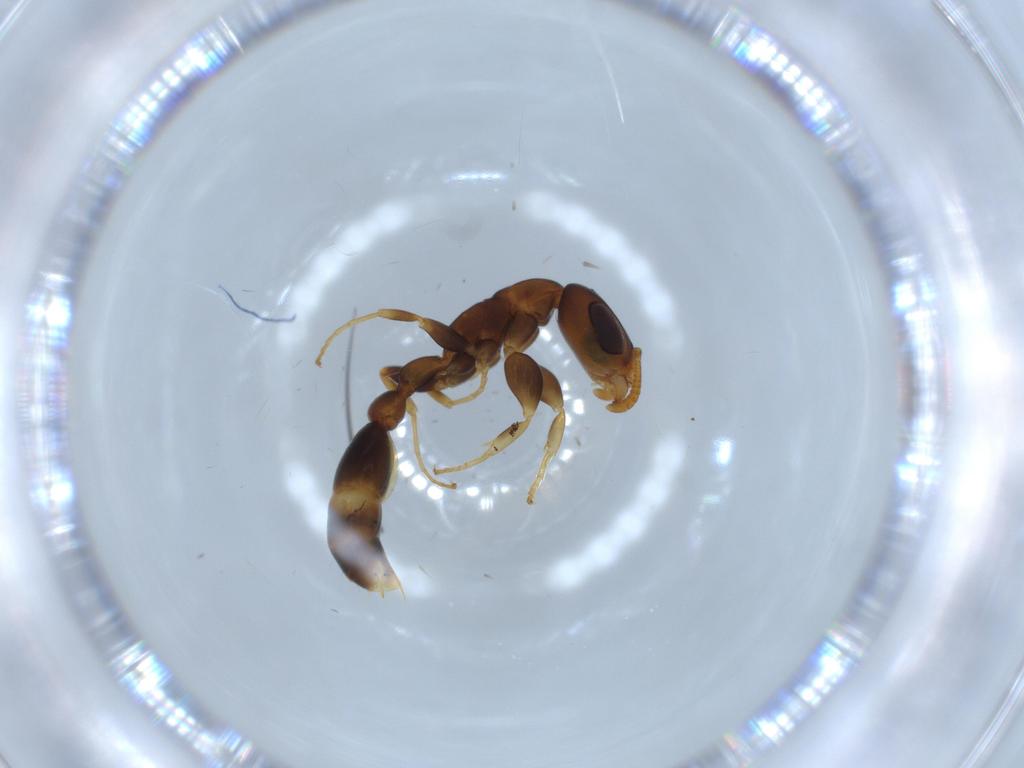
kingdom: Animalia
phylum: Arthropoda
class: Insecta
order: Hymenoptera
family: Formicidae
